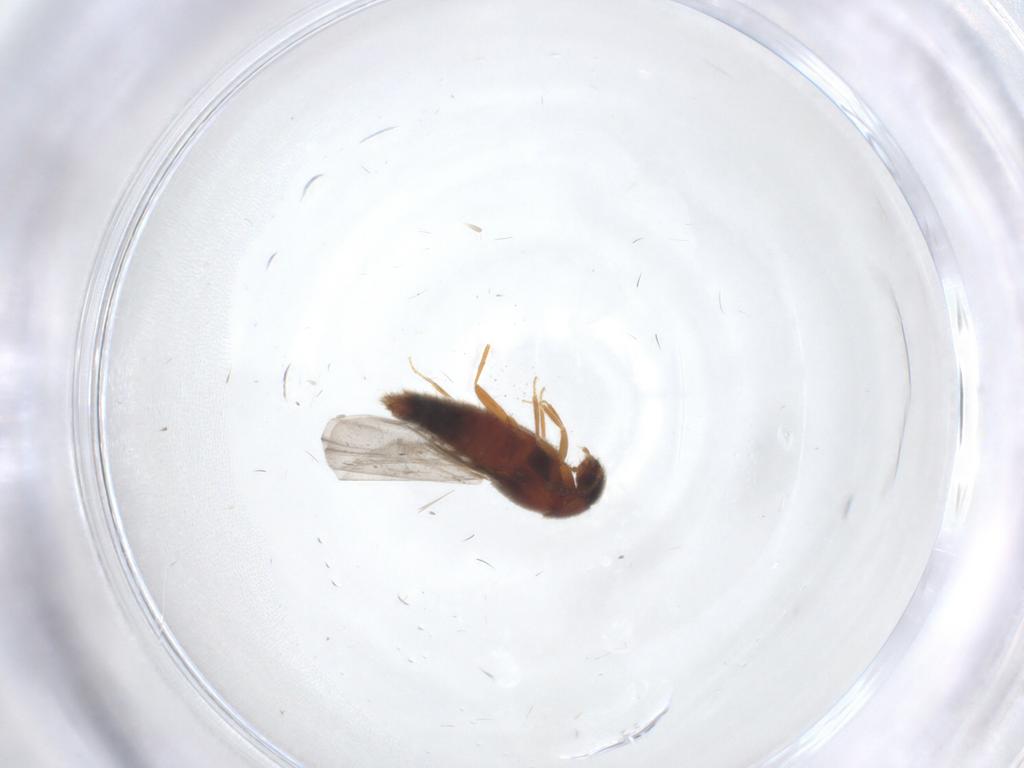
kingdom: Animalia
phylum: Arthropoda
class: Insecta
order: Coleoptera
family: Staphylinidae
